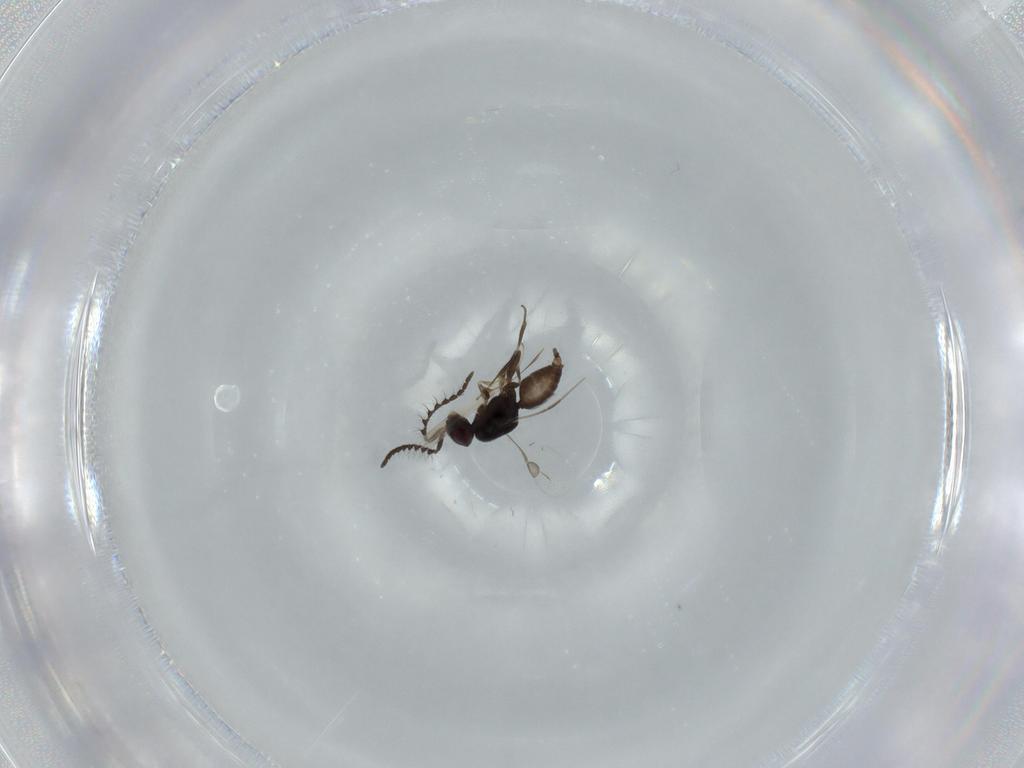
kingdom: Animalia
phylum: Arthropoda
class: Insecta
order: Hymenoptera
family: Megaspilidae
